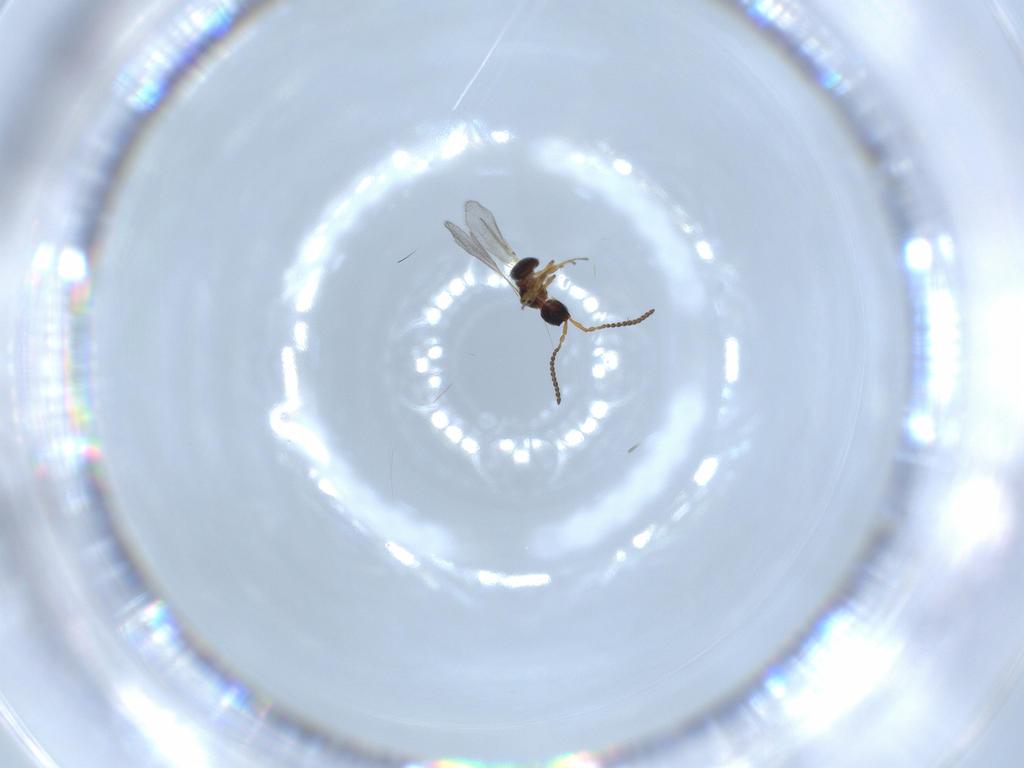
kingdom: Animalia
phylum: Arthropoda
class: Insecta
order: Hymenoptera
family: Diapriidae
